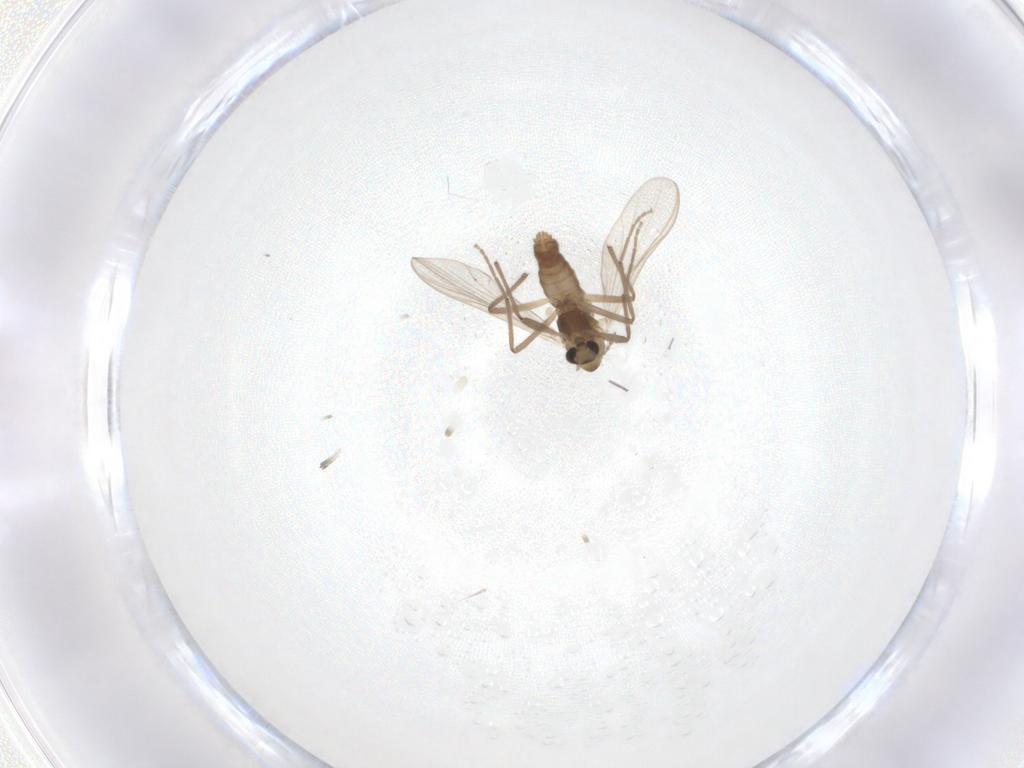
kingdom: Animalia
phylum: Arthropoda
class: Insecta
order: Diptera
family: Chironomidae
